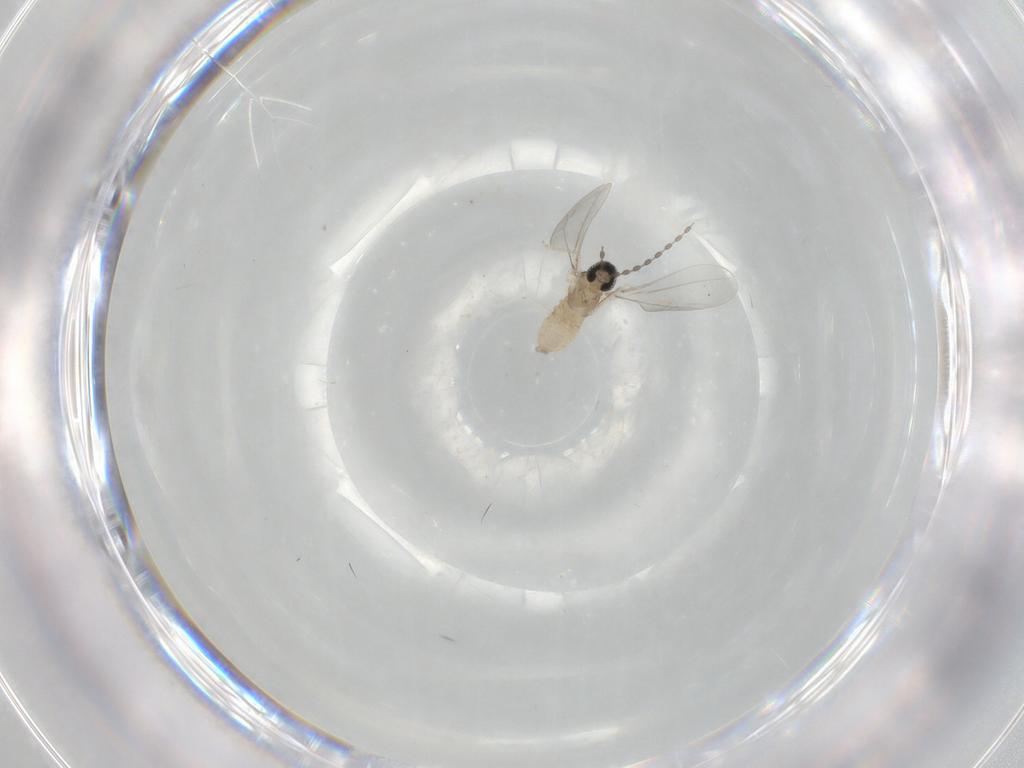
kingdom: Animalia
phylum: Arthropoda
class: Insecta
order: Diptera
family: Cecidomyiidae
